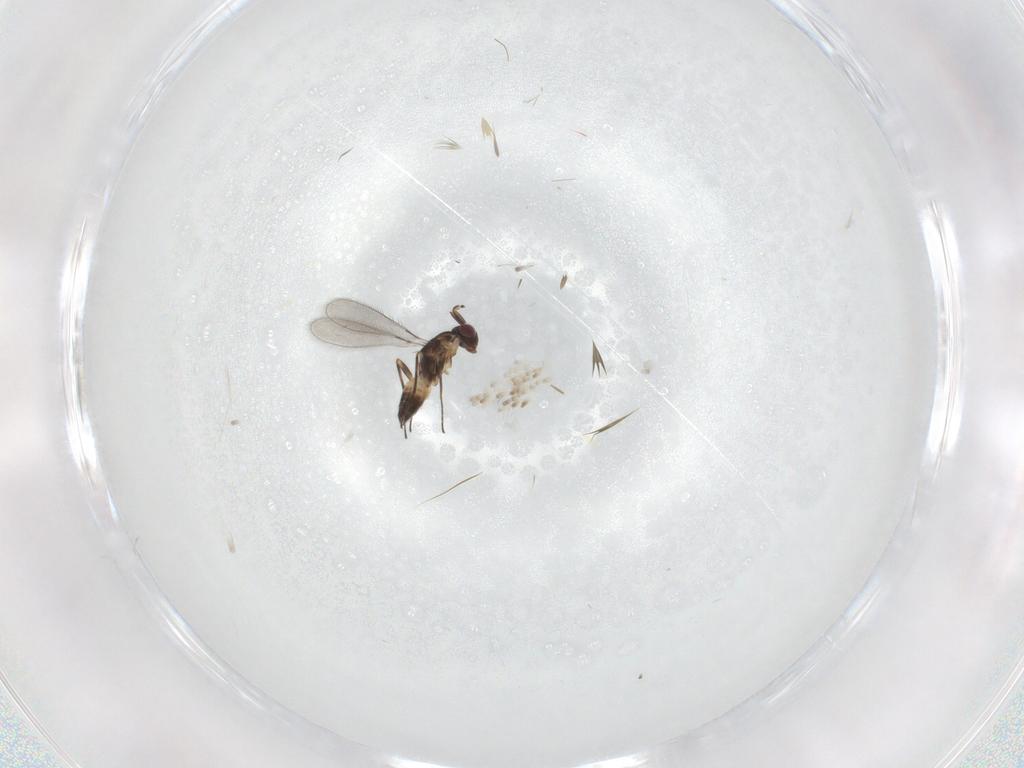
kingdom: Animalia
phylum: Arthropoda
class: Insecta
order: Hymenoptera
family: Mymaridae
